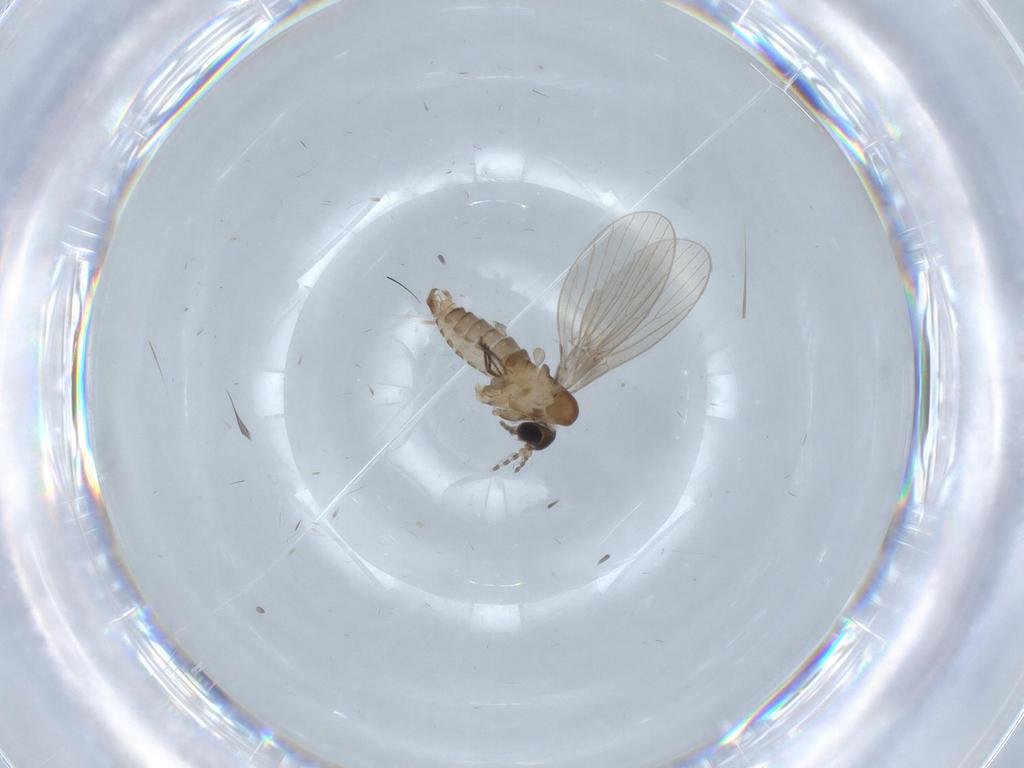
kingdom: Animalia
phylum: Arthropoda
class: Insecta
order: Diptera
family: Psychodidae
